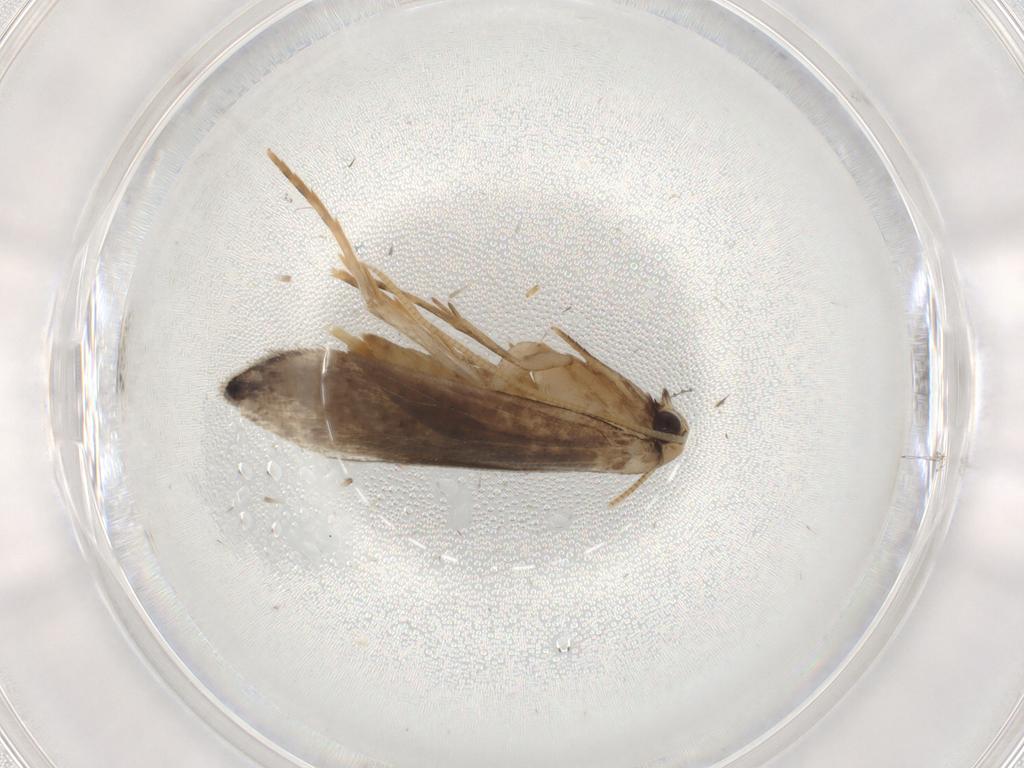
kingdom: Animalia
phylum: Arthropoda
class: Insecta
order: Lepidoptera
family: Tineidae
